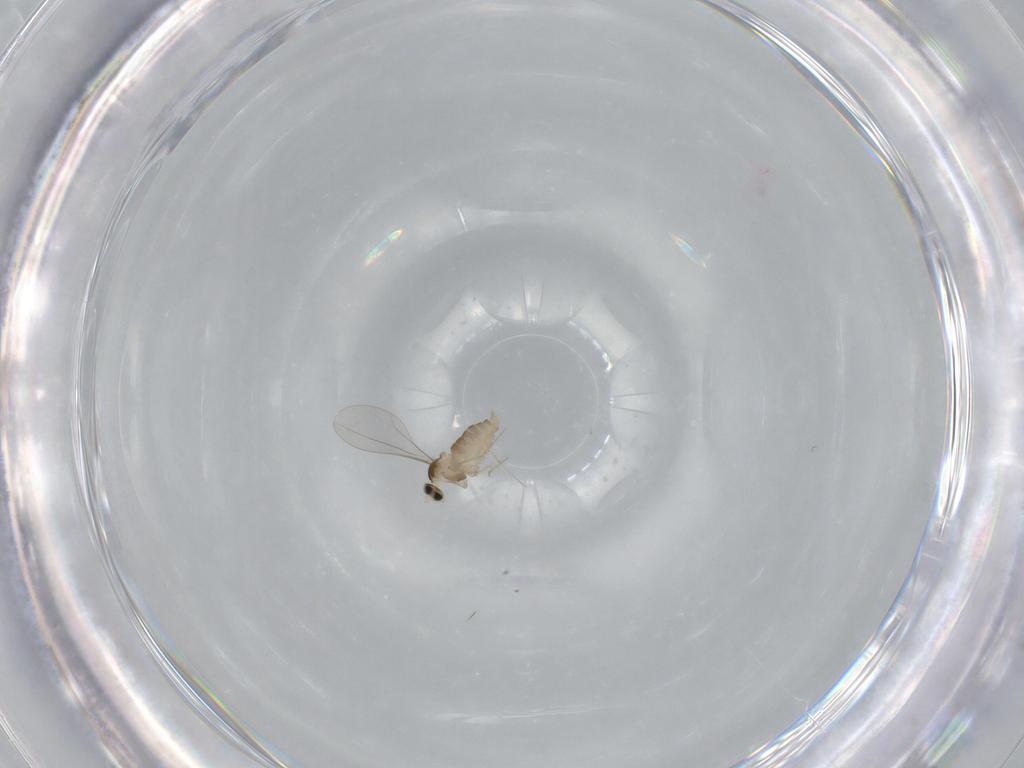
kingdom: Animalia
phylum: Arthropoda
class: Insecta
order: Diptera
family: Cecidomyiidae
